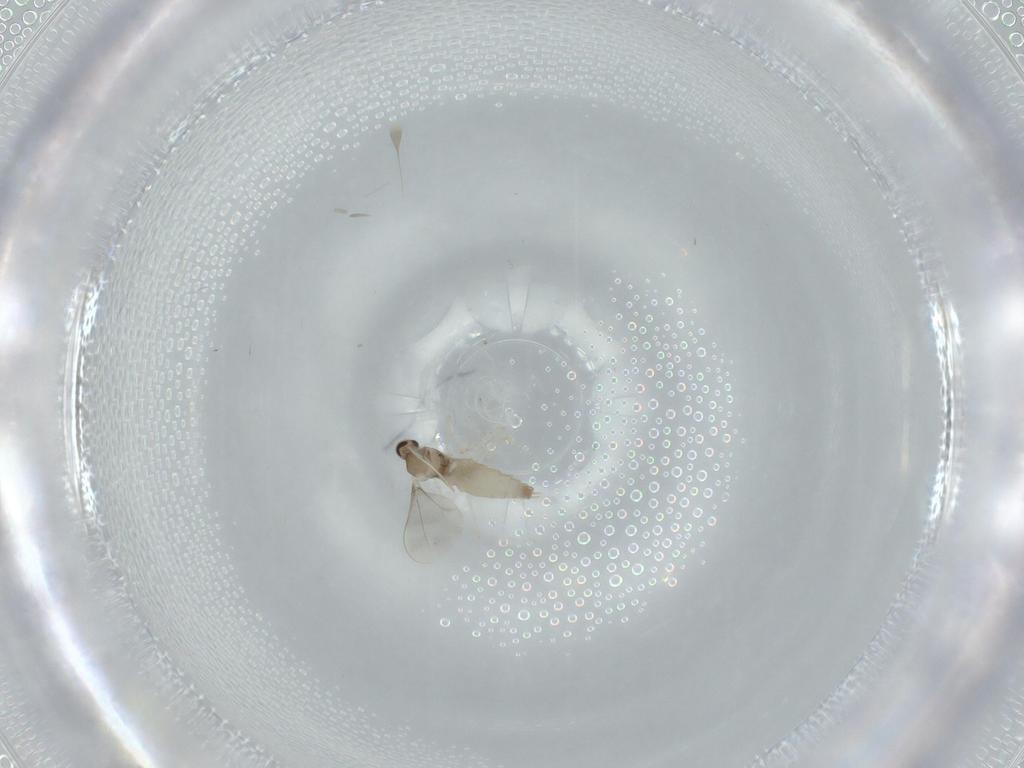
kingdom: Animalia
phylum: Arthropoda
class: Insecta
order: Diptera
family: Cecidomyiidae
